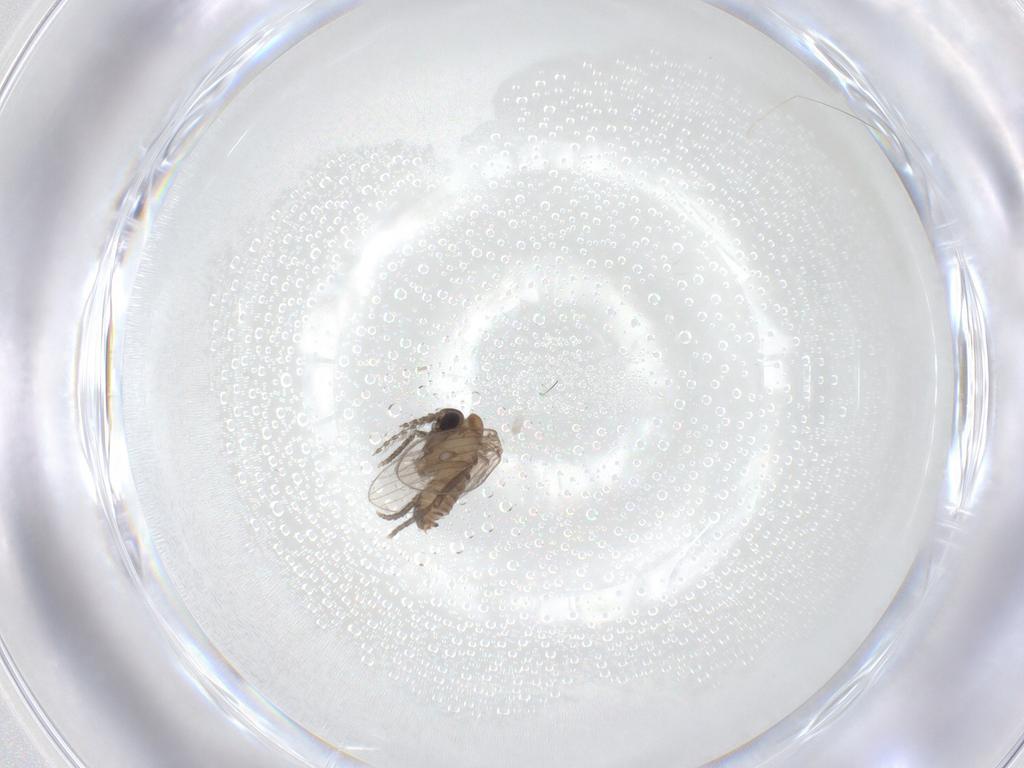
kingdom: Animalia
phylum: Arthropoda
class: Insecta
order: Diptera
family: Psychodidae
